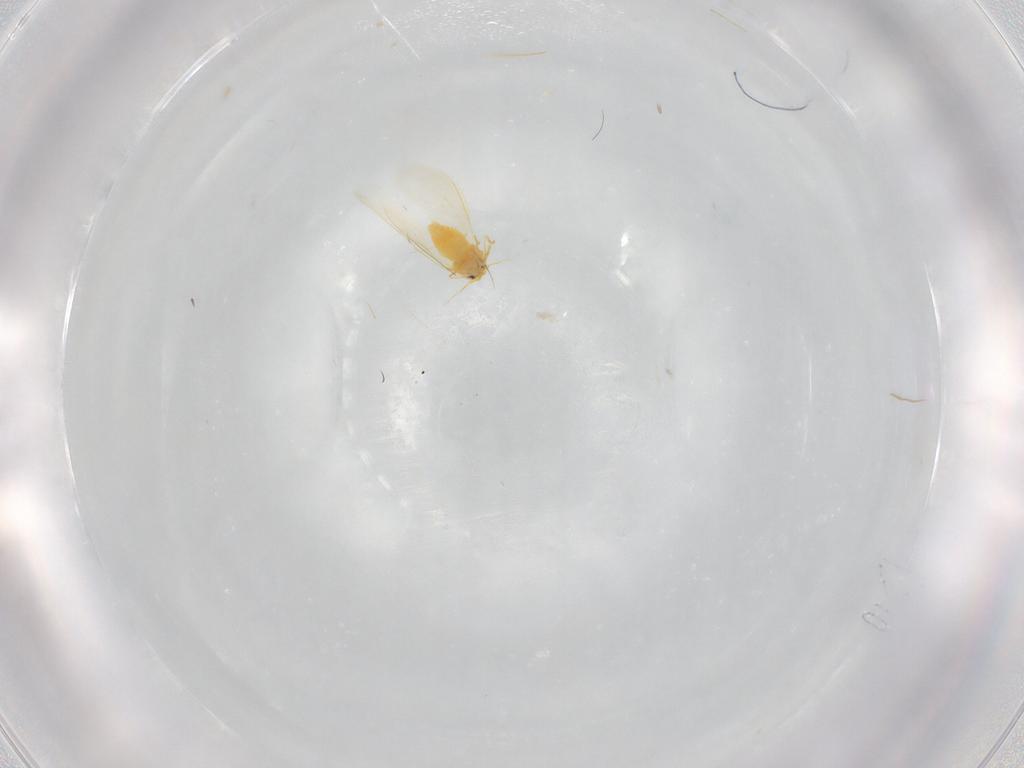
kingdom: Animalia
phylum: Arthropoda
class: Insecta
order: Hemiptera
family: Aleyrodidae
